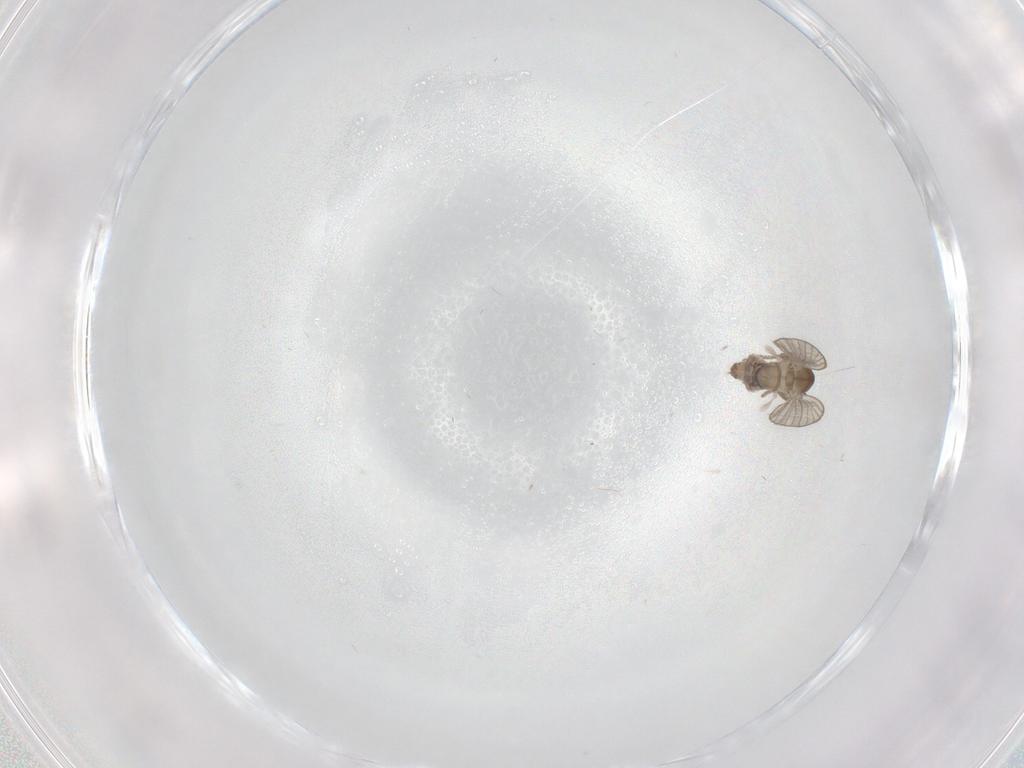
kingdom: Animalia
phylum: Arthropoda
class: Insecta
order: Diptera
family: Psychodidae
